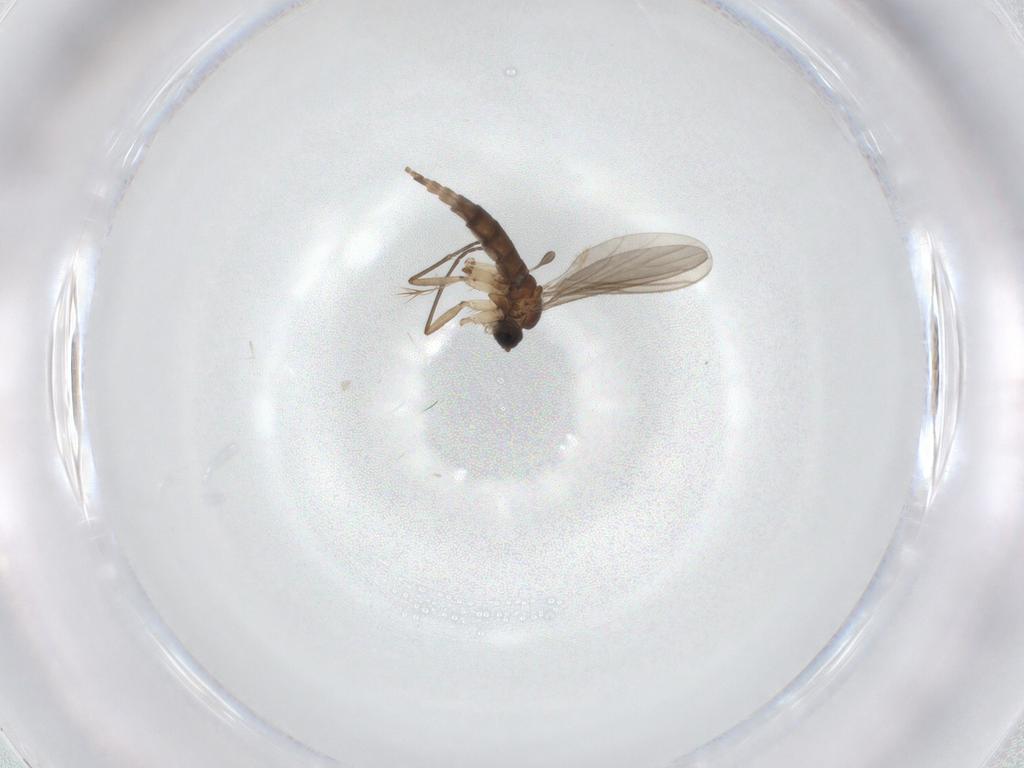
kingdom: Animalia
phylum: Arthropoda
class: Insecta
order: Diptera
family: Sciaridae
